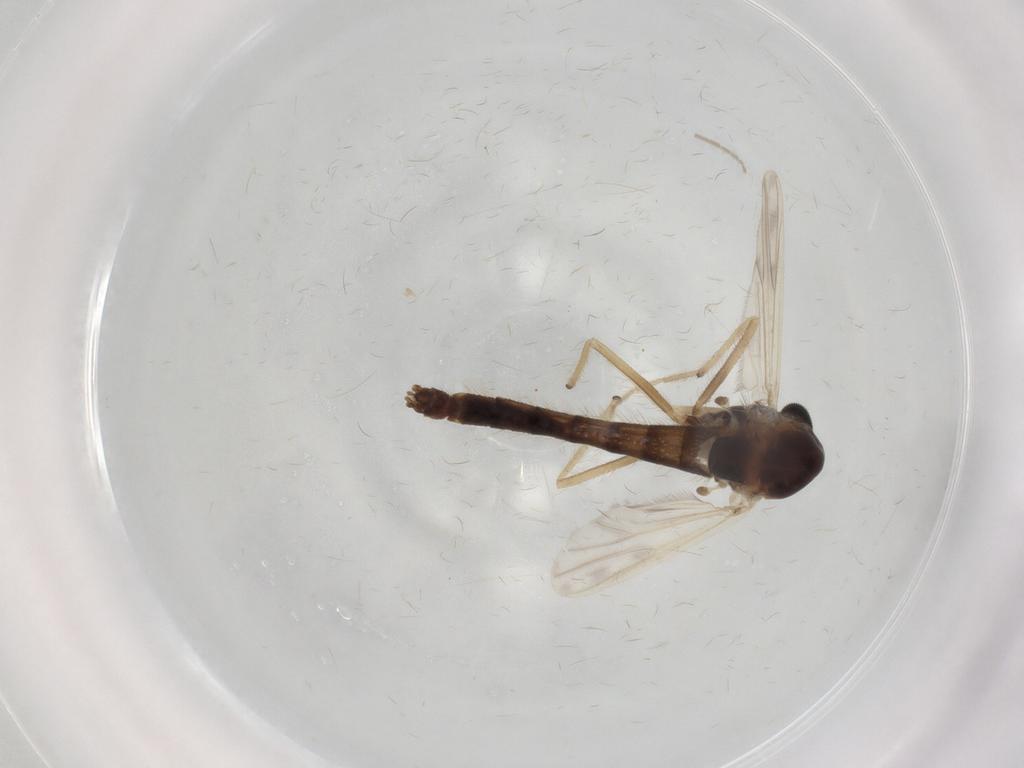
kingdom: Animalia
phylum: Arthropoda
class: Insecta
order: Diptera
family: Chironomidae
